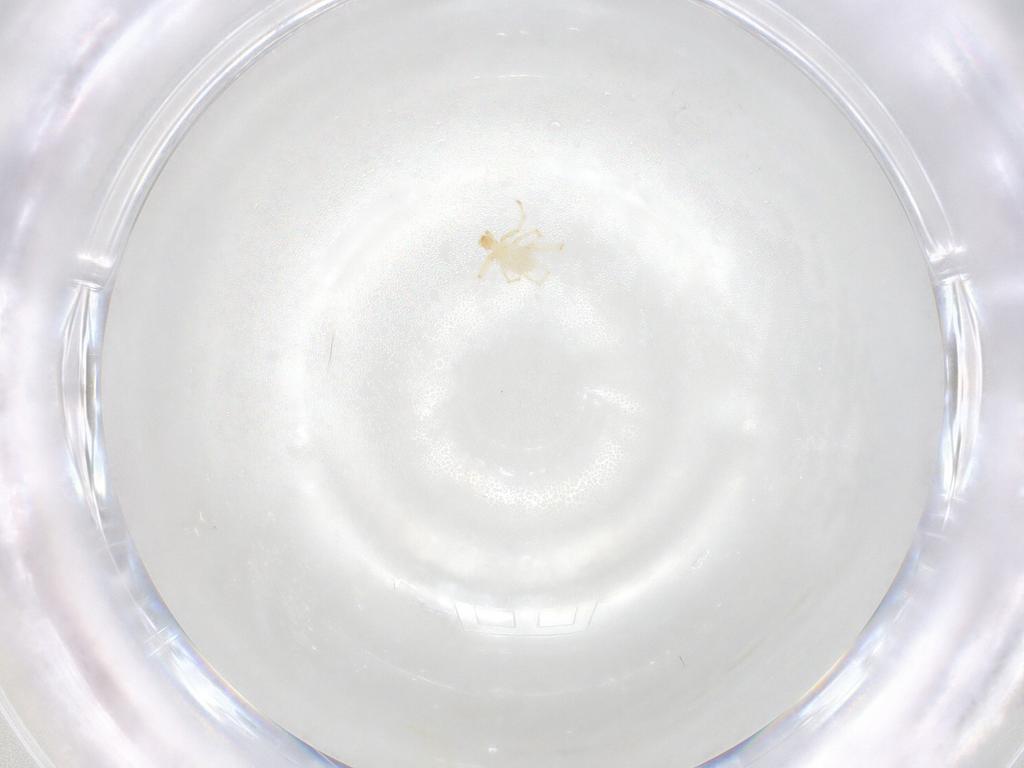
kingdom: Animalia
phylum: Arthropoda
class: Arachnida
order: Trombidiformes
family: Erythraeidae
